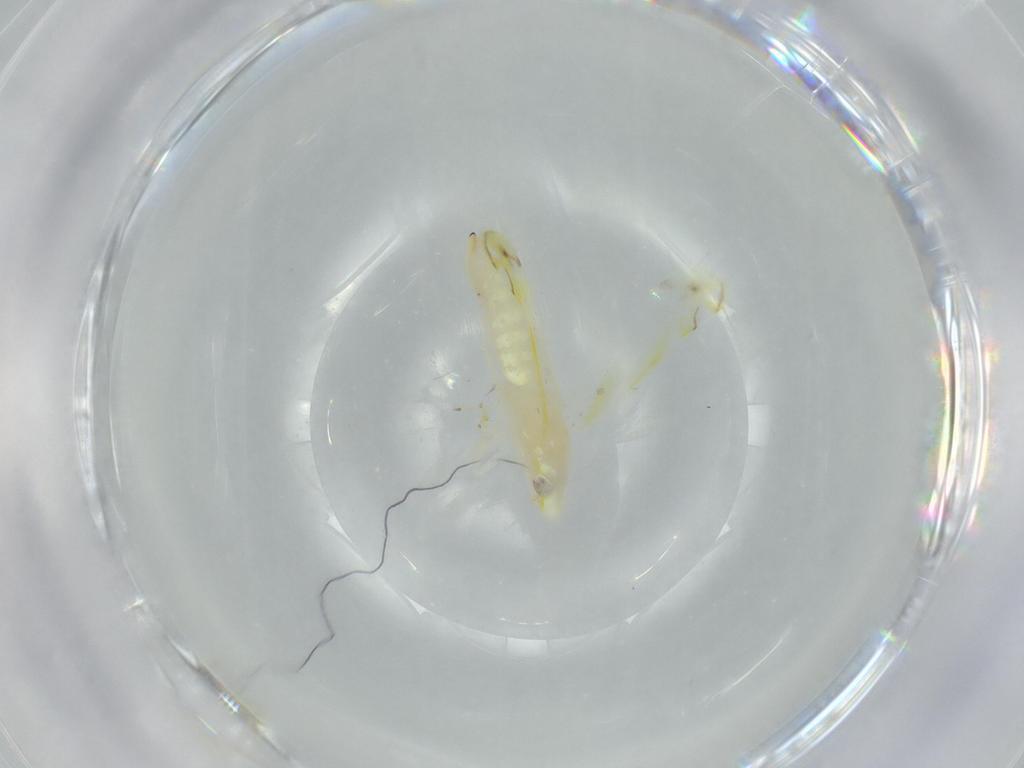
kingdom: Animalia
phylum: Arthropoda
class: Insecta
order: Hemiptera
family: Cicadellidae
